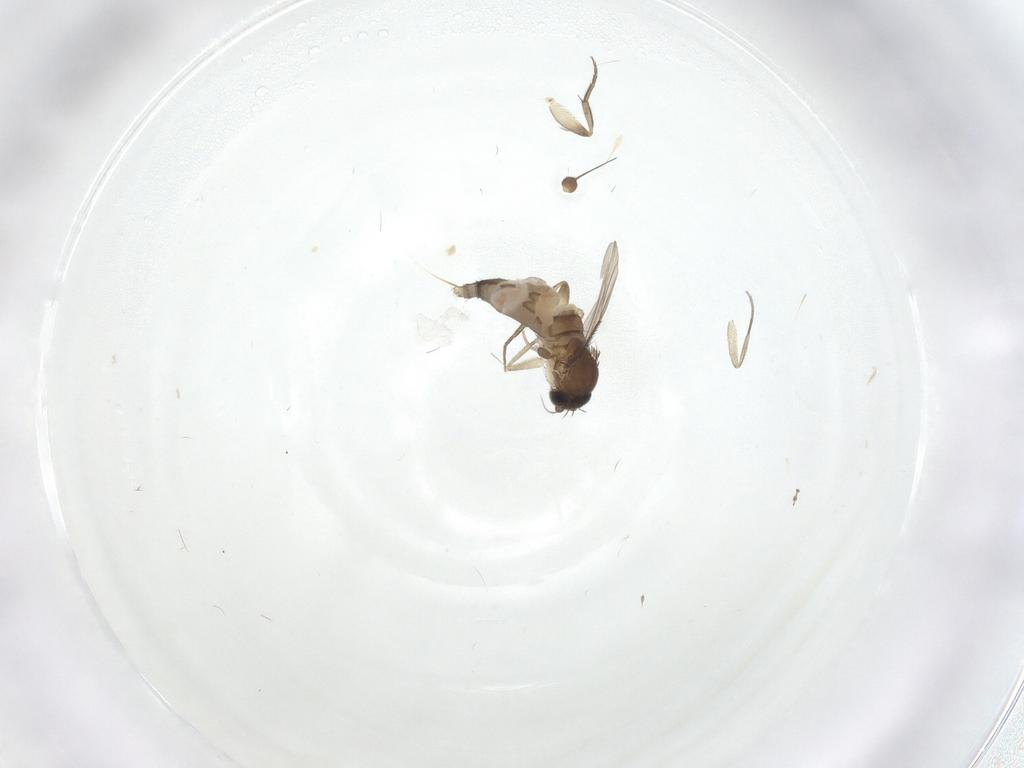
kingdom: Animalia
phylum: Arthropoda
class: Insecta
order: Diptera
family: Phoridae
